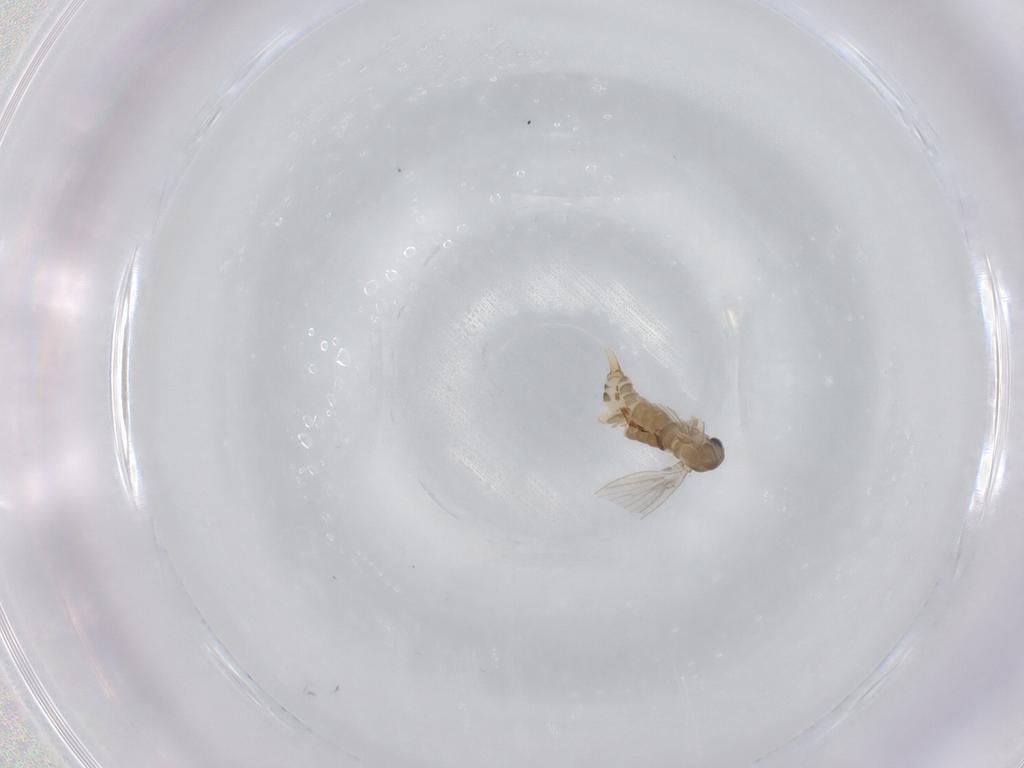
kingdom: Animalia
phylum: Arthropoda
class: Insecta
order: Diptera
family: Psychodidae
